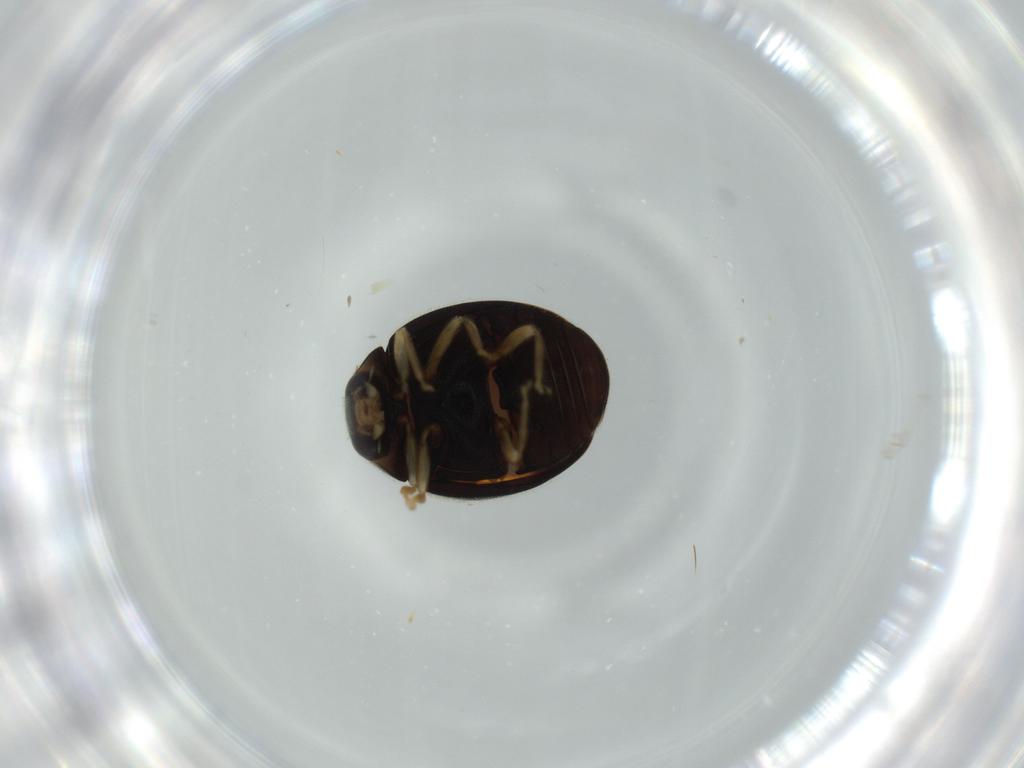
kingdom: Animalia
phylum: Arthropoda
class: Insecta
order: Coleoptera
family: Coccinellidae
